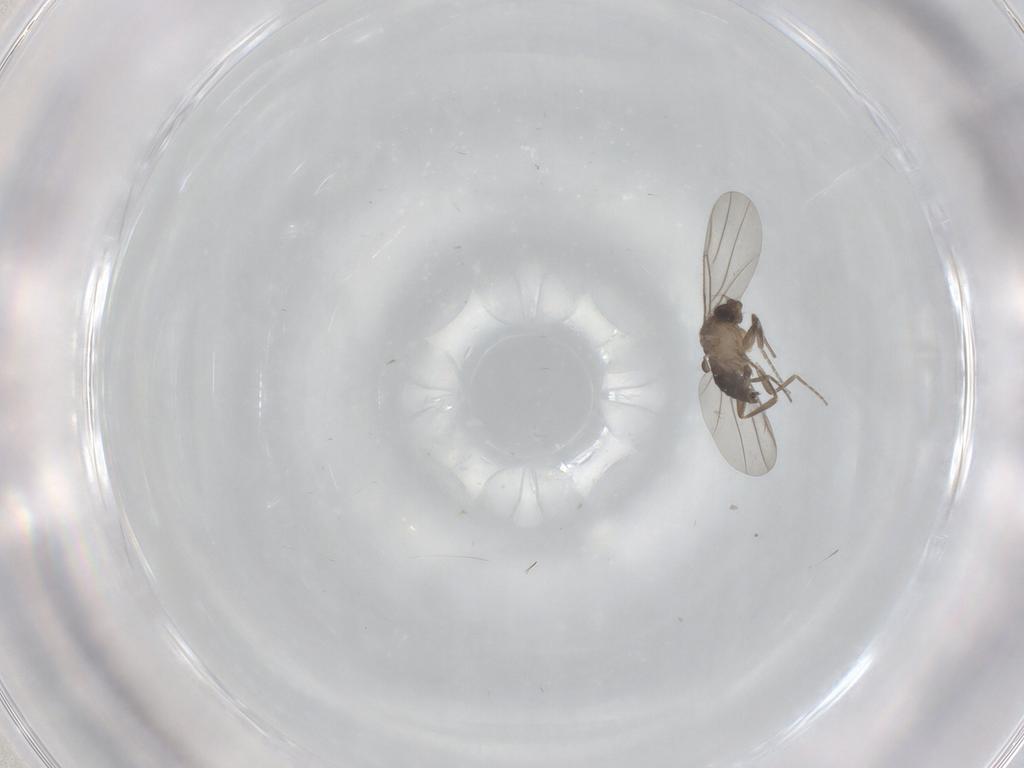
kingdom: Animalia
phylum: Arthropoda
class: Insecta
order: Diptera
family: Phoridae
